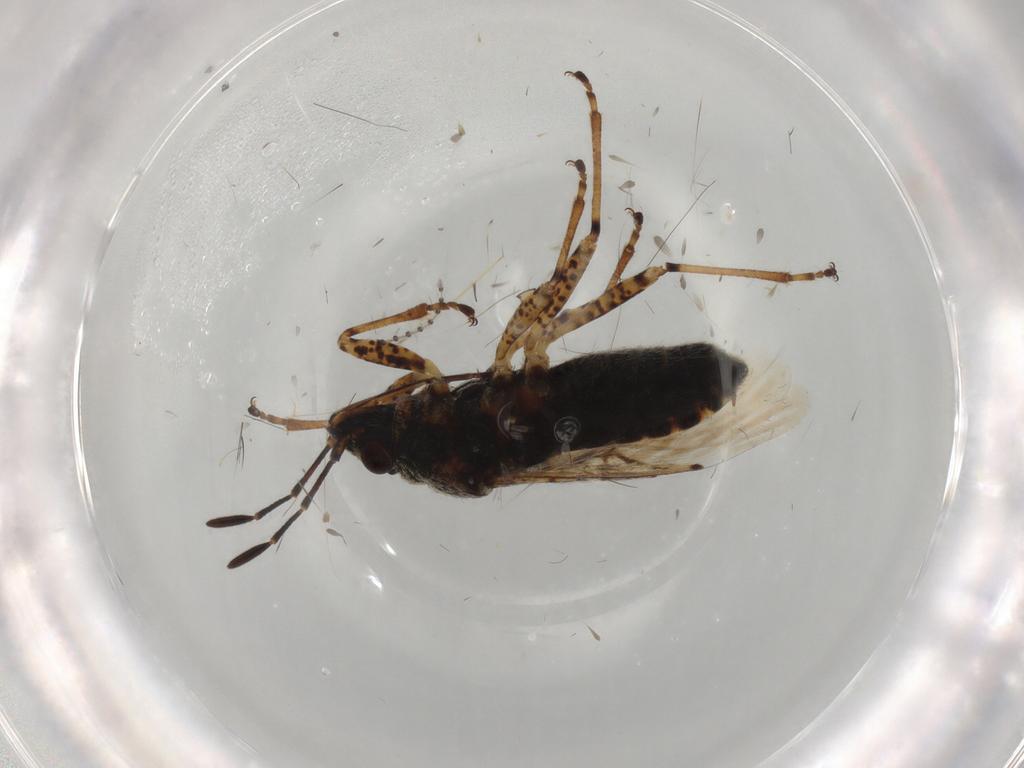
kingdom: Animalia
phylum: Arthropoda
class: Insecta
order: Hemiptera
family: Lygaeidae
